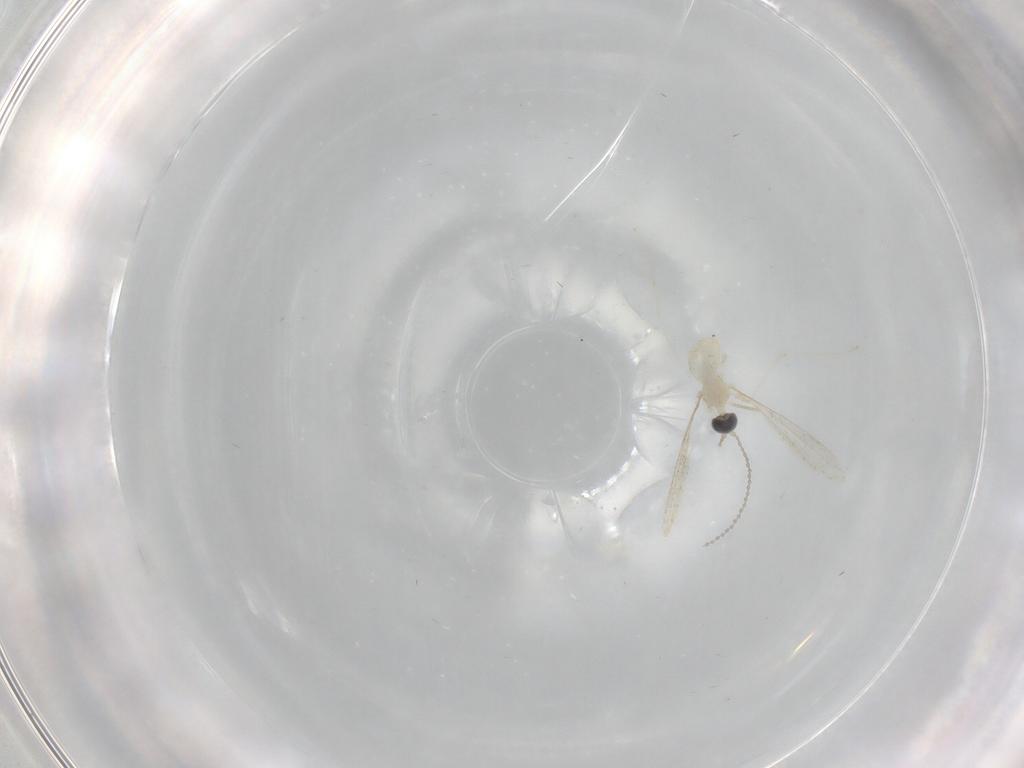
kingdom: Animalia
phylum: Arthropoda
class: Insecta
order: Diptera
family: Cecidomyiidae
